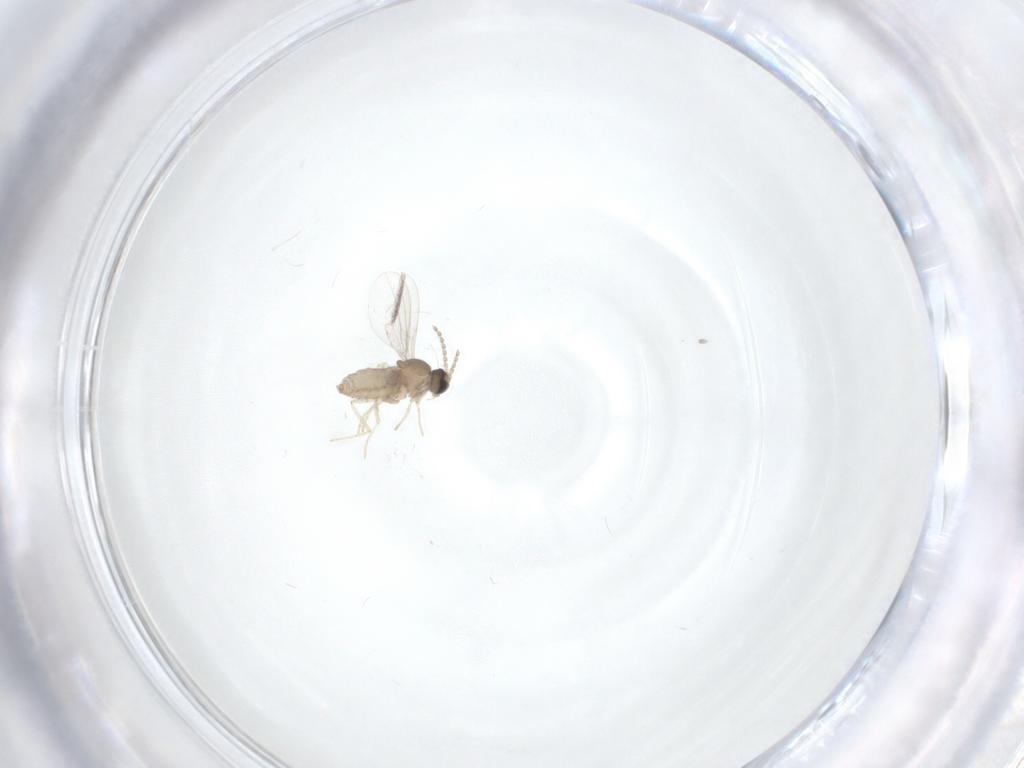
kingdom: Animalia
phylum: Arthropoda
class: Insecta
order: Diptera
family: Cecidomyiidae
